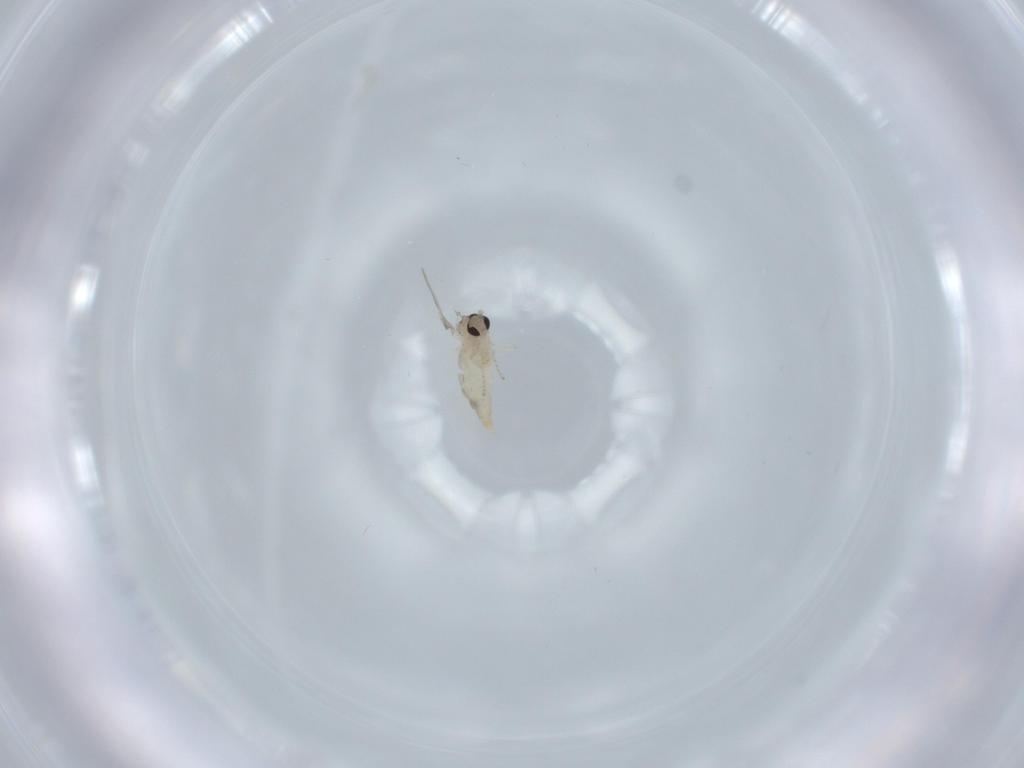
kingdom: Animalia
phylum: Arthropoda
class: Insecta
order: Diptera
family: Cecidomyiidae
